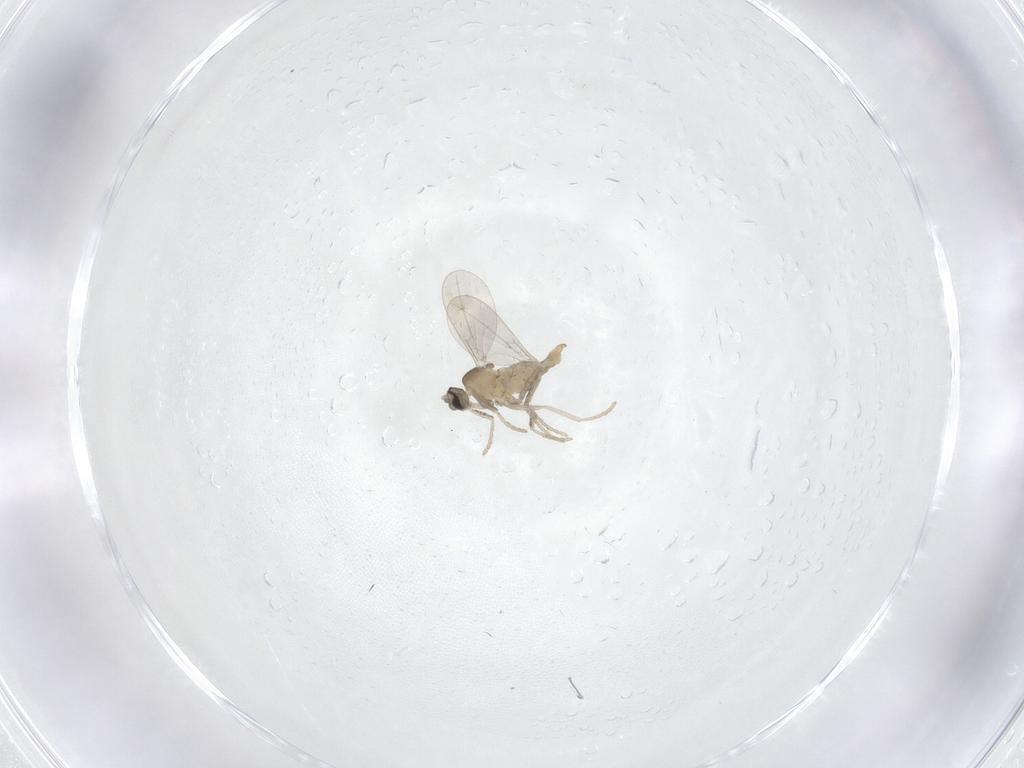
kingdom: Animalia
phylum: Arthropoda
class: Insecta
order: Diptera
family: Cecidomyiidae
